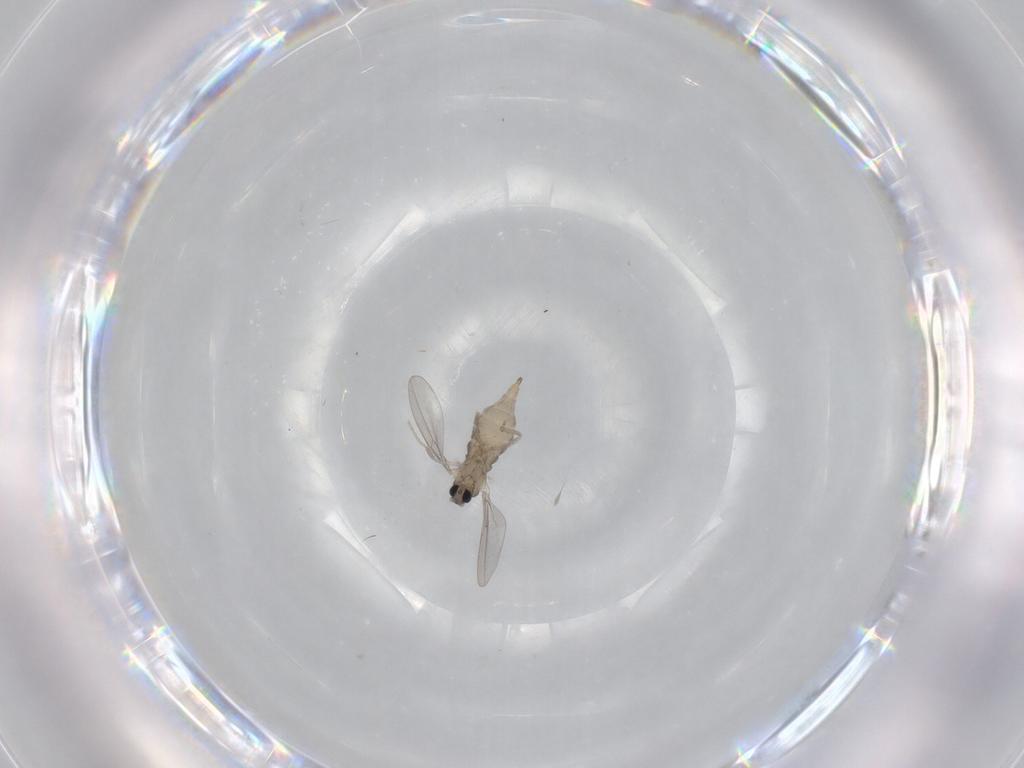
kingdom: Animalia
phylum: Arthropoda
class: Insecta
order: Diptera
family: Cecidomyiidae
